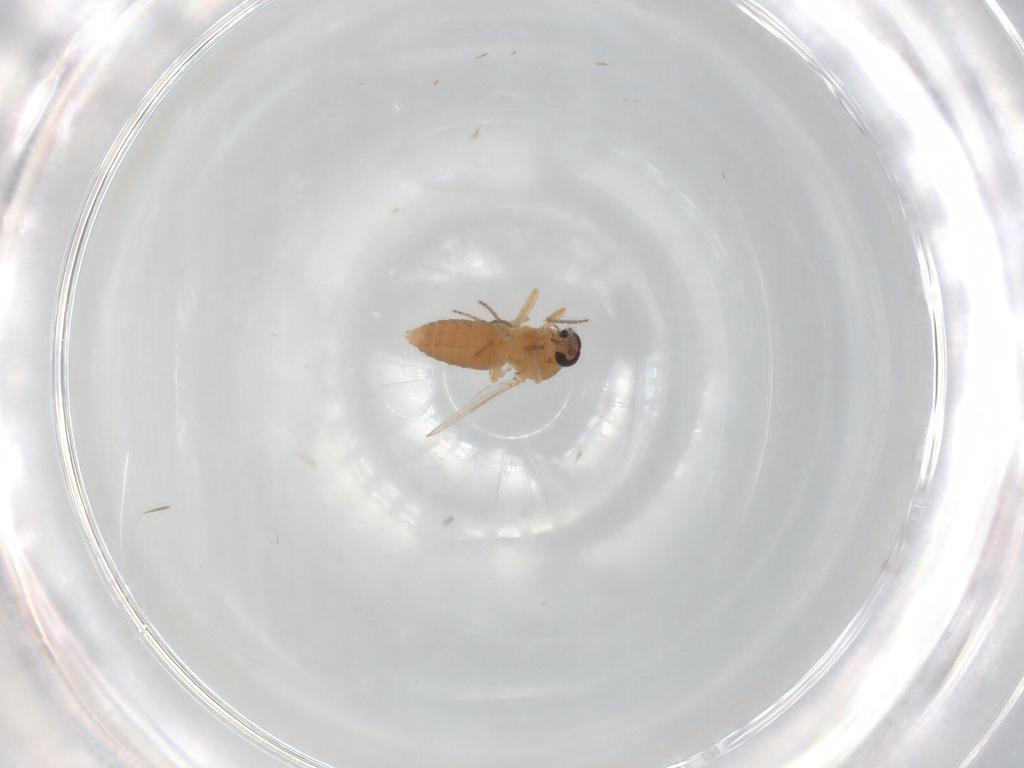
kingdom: Animalia
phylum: Arthropoda
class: Insecta
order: Diptera
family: Ceratopogonidae
